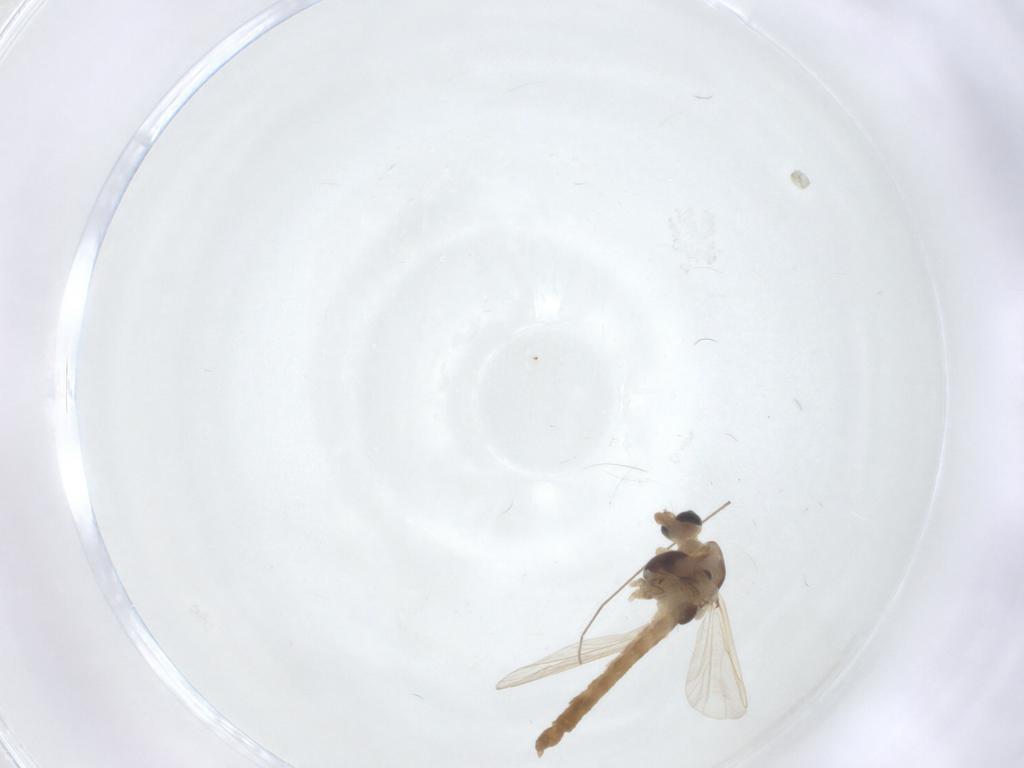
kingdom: Animalia
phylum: Arthropoda
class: Insecta
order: Diptera
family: Chironomidae
